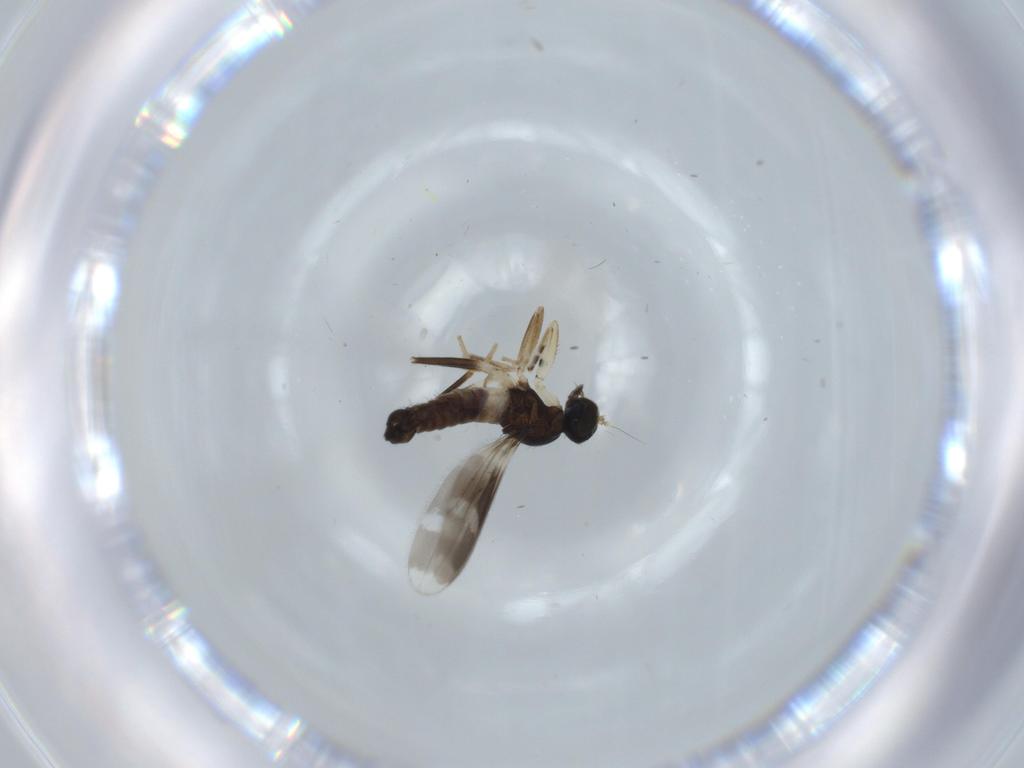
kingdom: Animalia
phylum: Arthropoda
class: Insecta
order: Diptera
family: Hybotidae
